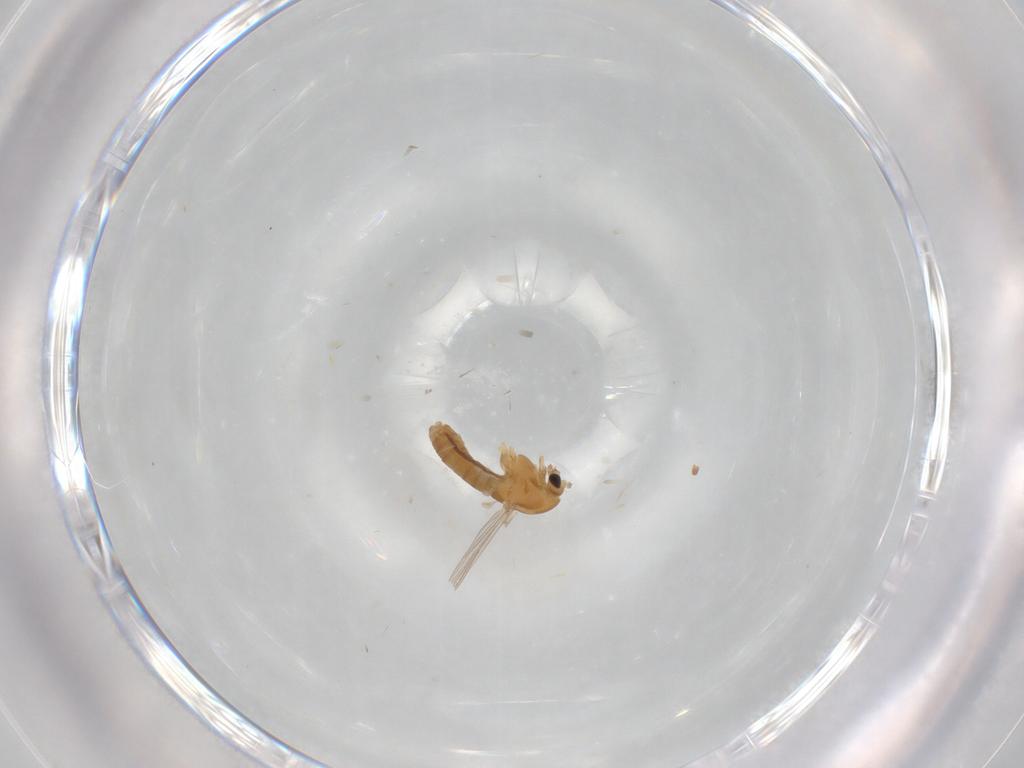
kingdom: Animalia
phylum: Arthropoda
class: Insecta
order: Diptera
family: Chironomidae
